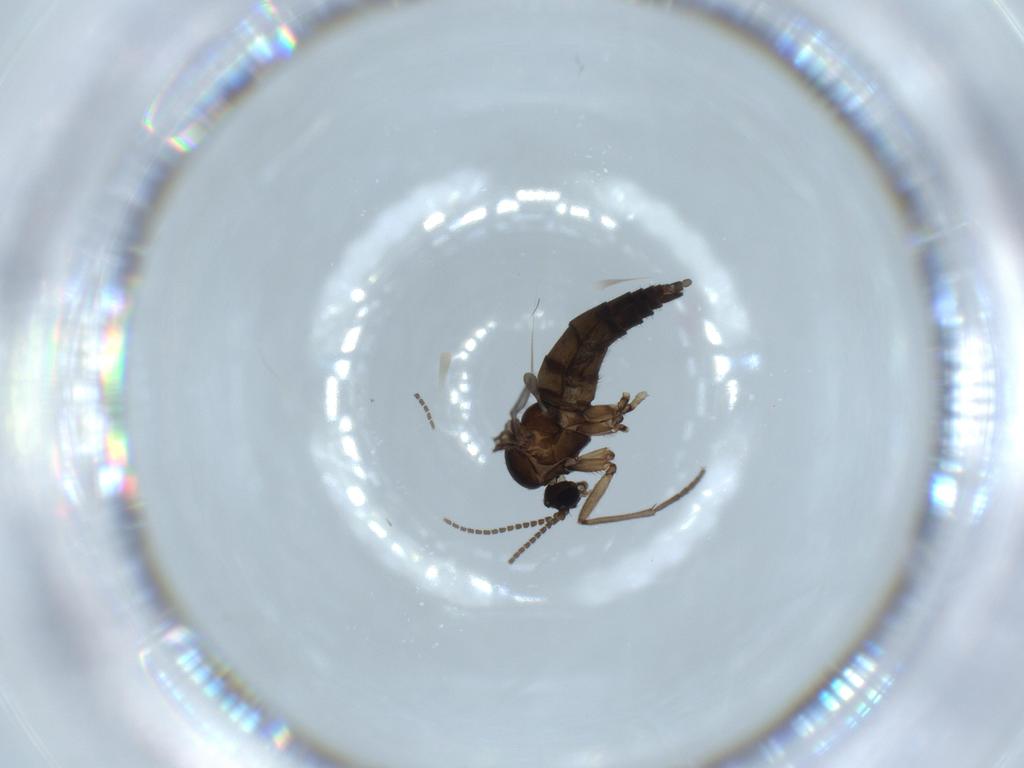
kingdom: Animalia
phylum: Arthropoda
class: Insecta
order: Diptera
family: Sciaridae
